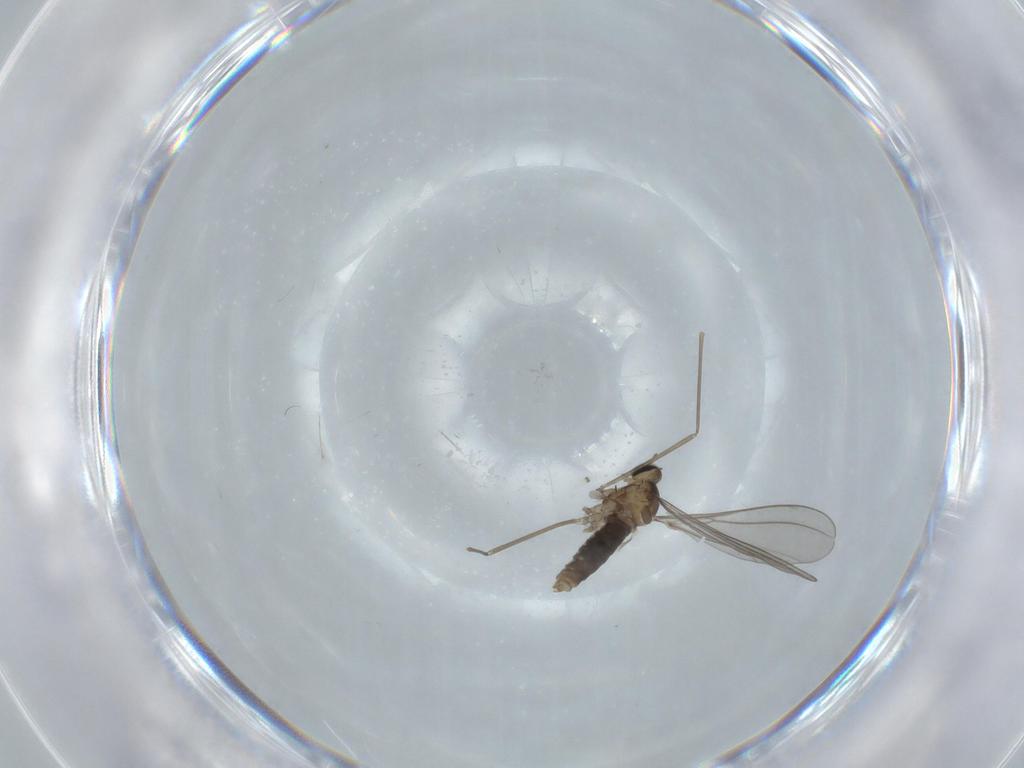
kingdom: Animalia
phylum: Arthropoda
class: Insecta
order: Diptera
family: Cecidomyiidae
